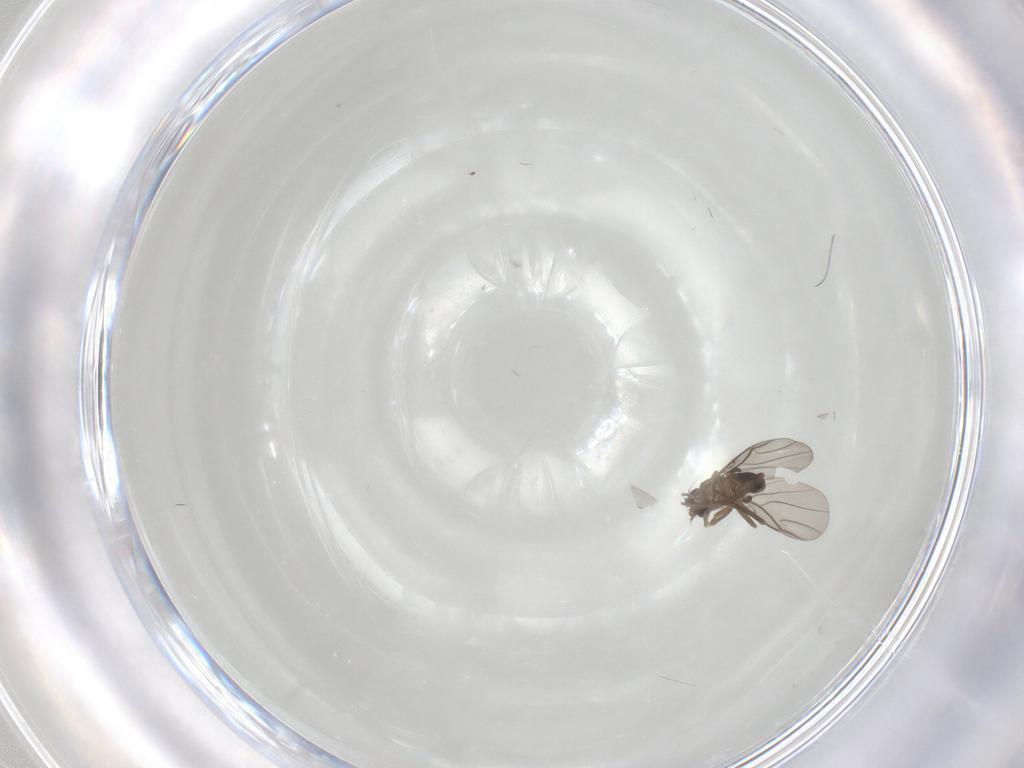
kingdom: Animalia
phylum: Arthropoda
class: Insecta
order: Diptera
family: Phoridae
